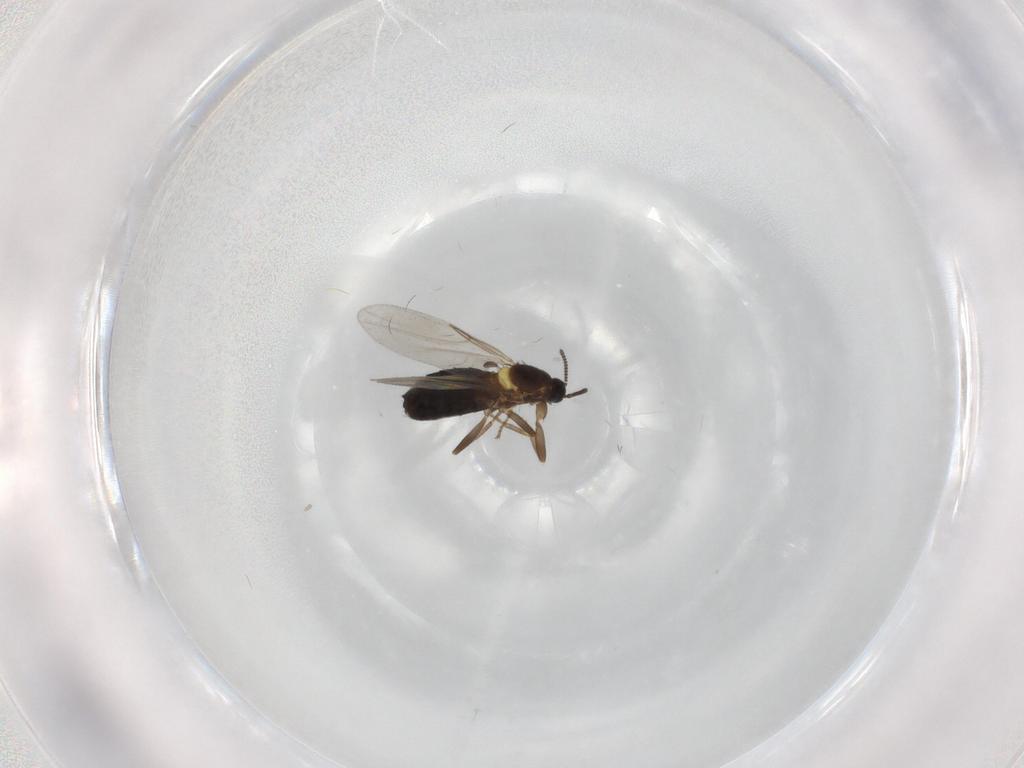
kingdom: Animalia
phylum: Arthropoda
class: Insecta
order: Diptera
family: Scatopsidae
